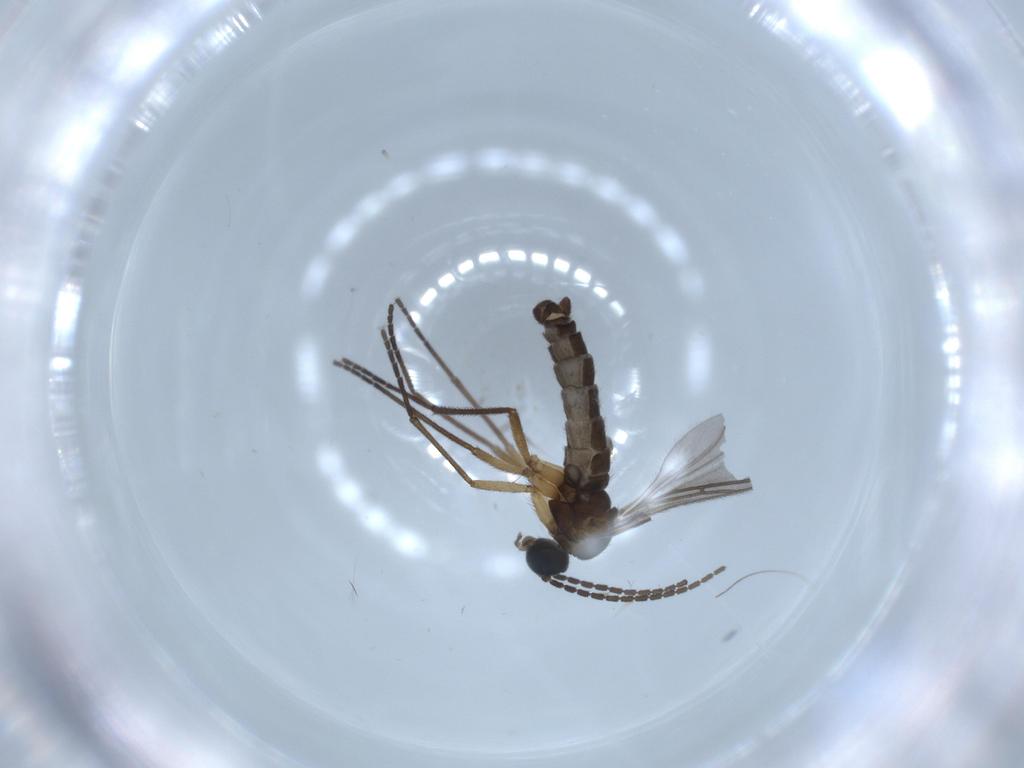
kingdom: Animalia
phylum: Arthropoda
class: Insecta
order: Diptera
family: Sciaridae
